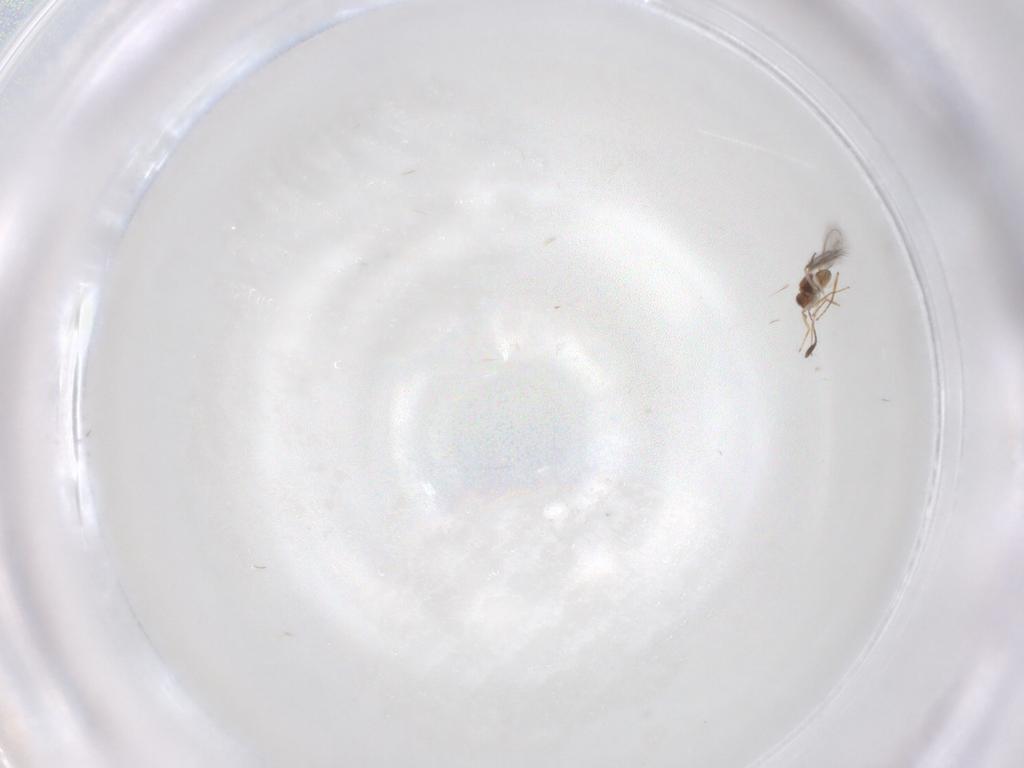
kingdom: Animalia
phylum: Arthropoda
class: Insecta
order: Hymenoptera
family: Mymaridae
